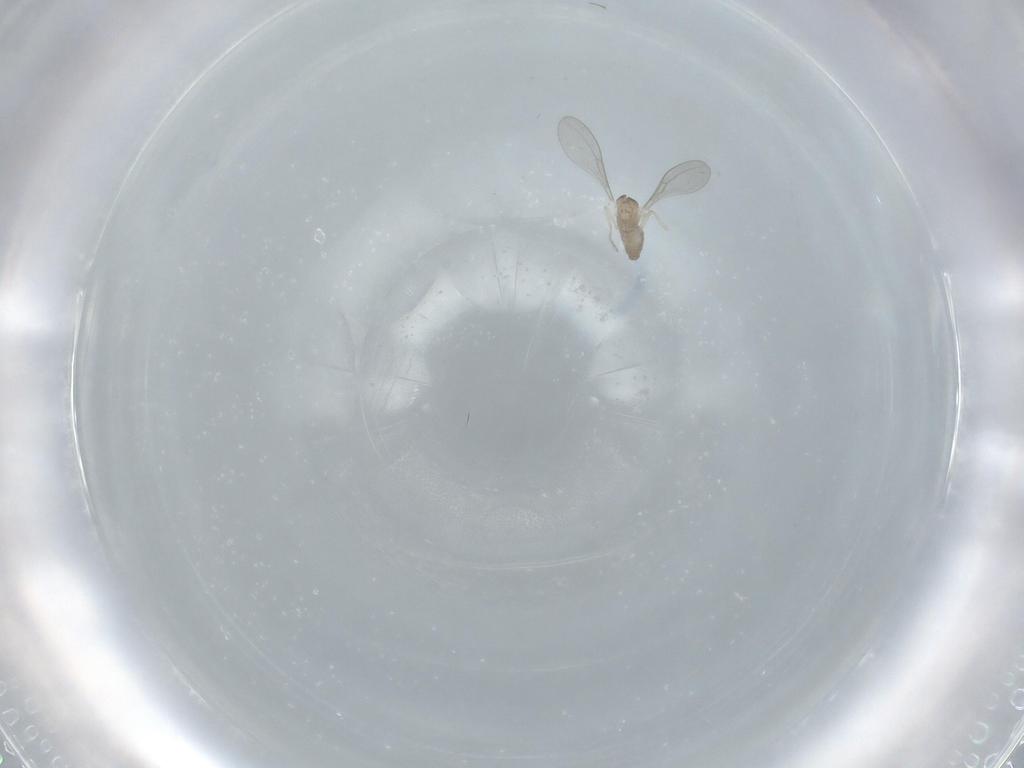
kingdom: Animalia
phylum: Arthropoda
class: Insecta
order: Diptera
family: Cecidomyiidae
